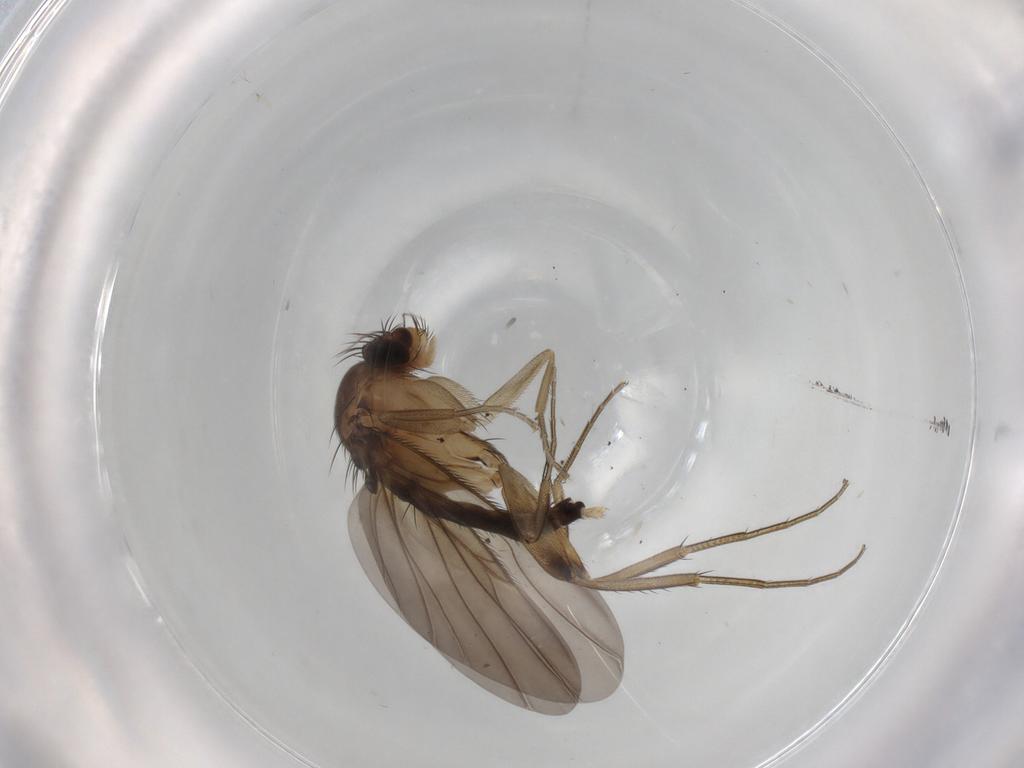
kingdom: Animalia
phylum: Arthropoda
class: Insecta
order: Diptera
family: Phoridae
